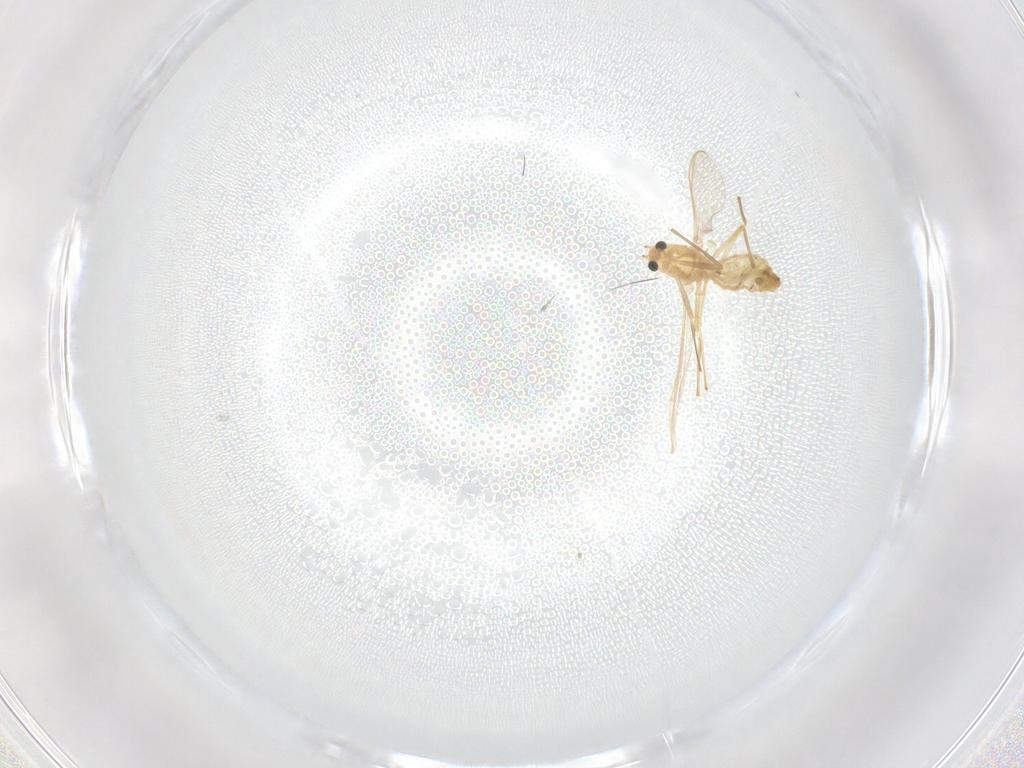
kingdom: Animalia
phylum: Arthropoda
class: Insecta
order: Diptera
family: Chironomidae
